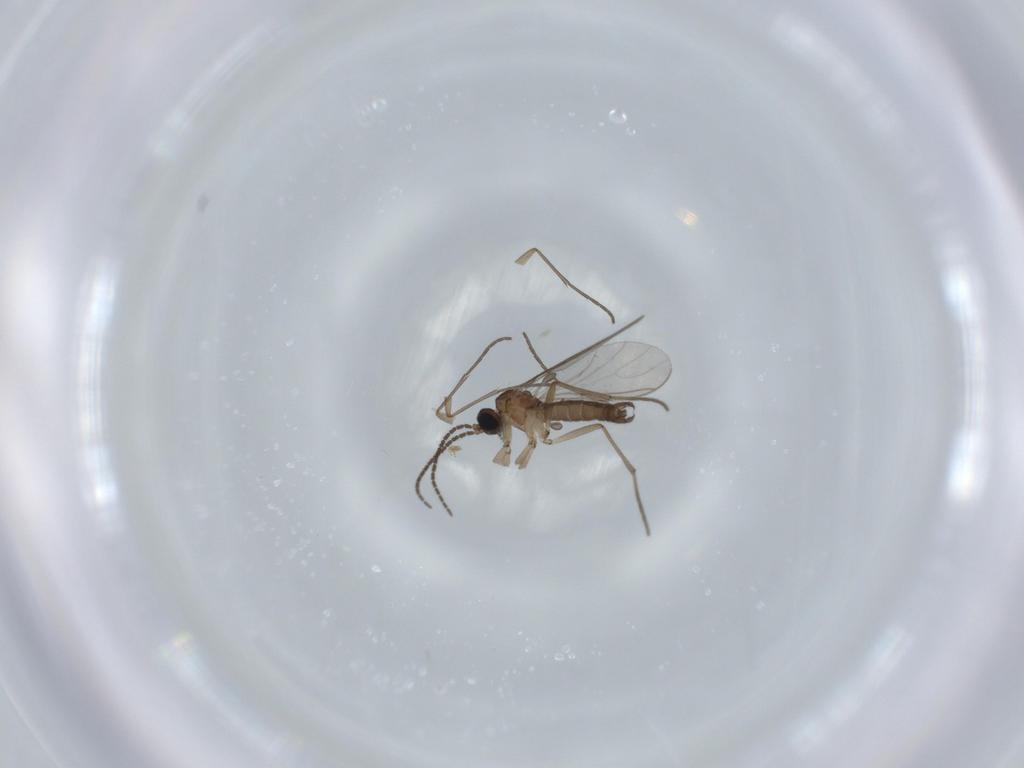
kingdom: Animalia
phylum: Arthropoda
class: Insecta
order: Diptera
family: Sciaridae
